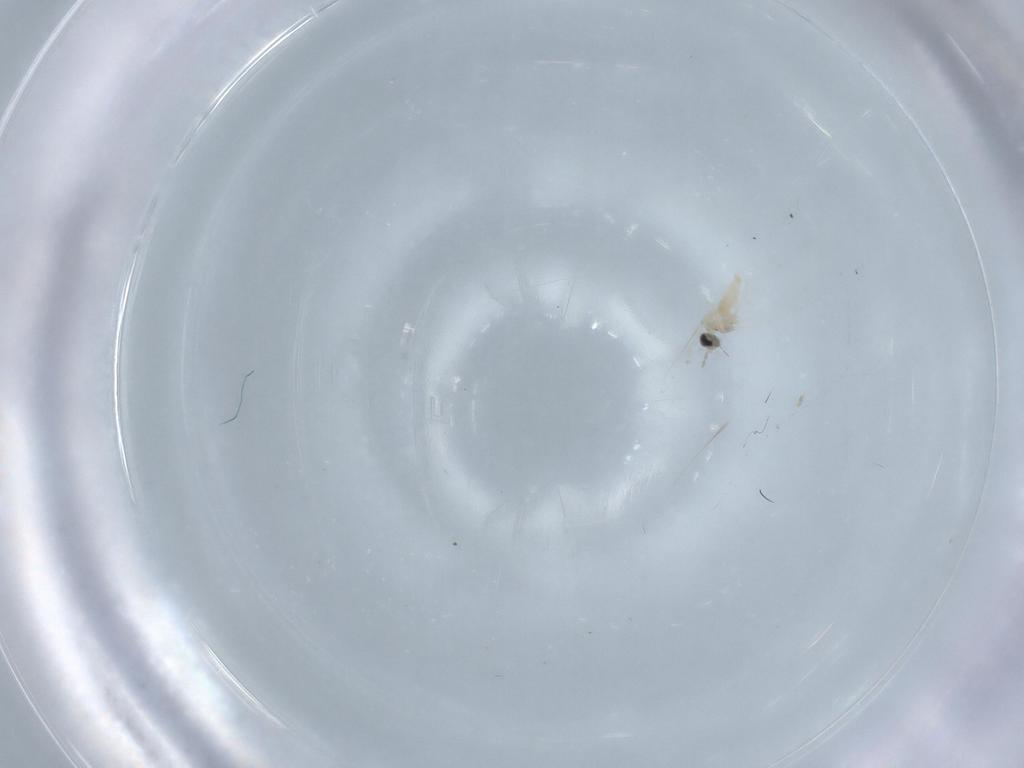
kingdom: Animalia
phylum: Arthropoda
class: Insecta
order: Diptera
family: Cecidomyiidae
